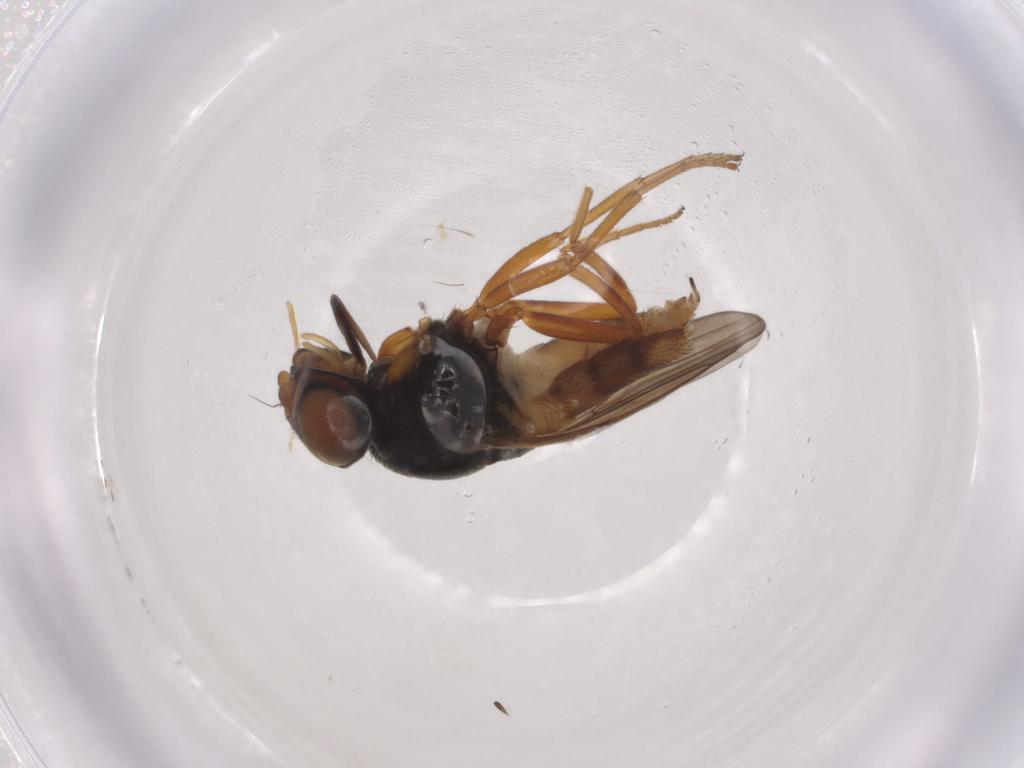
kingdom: Animalia
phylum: Arthropoda
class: Insecta
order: Diptera
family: Chloropidae
